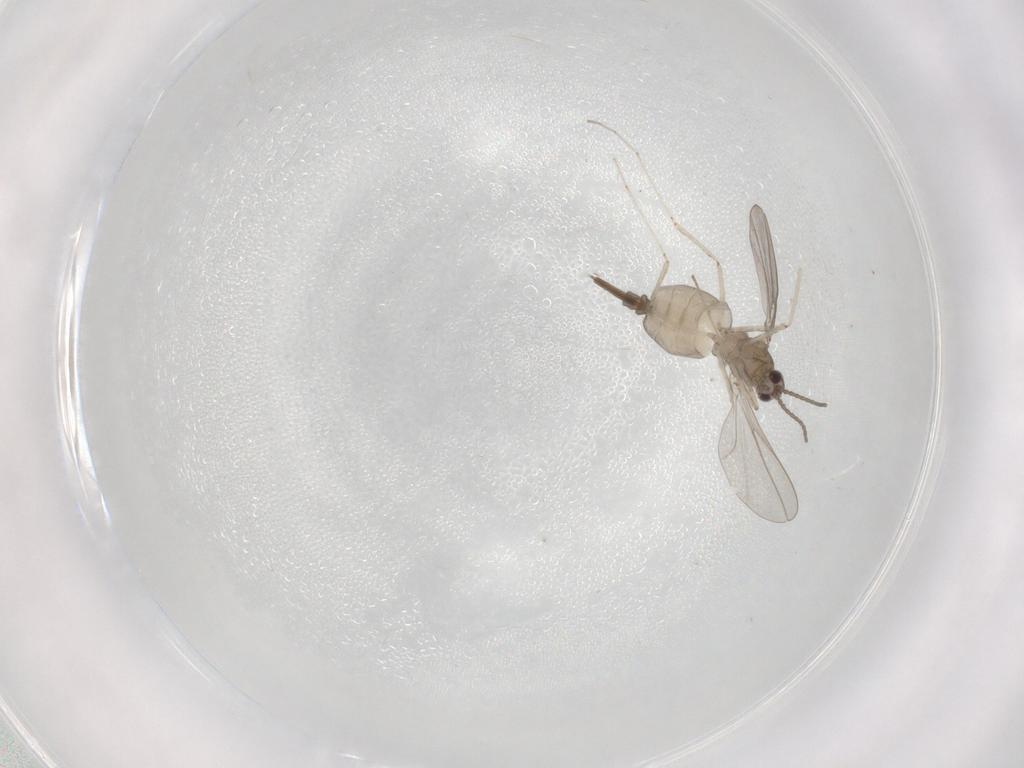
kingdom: Animalia
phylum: Arthropoda
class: Insecta
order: Diptera
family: Cecidomyiidae
